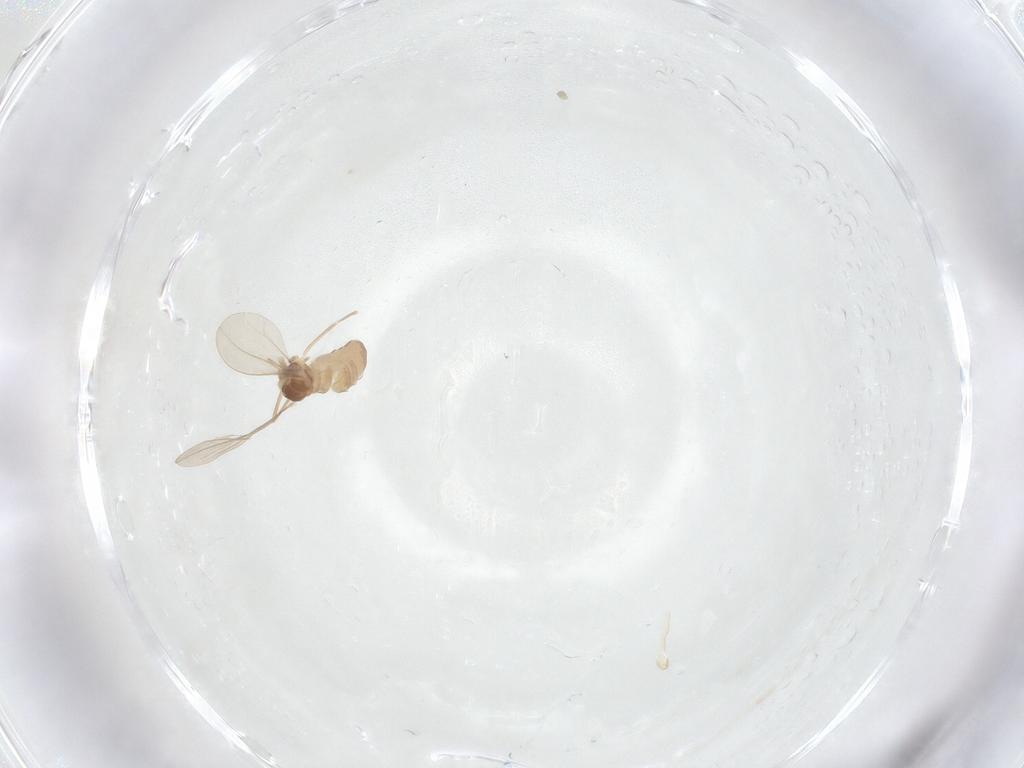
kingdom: Animalia
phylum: Arthropoda
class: Insecta
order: Diptera
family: Cecidomyiidae
